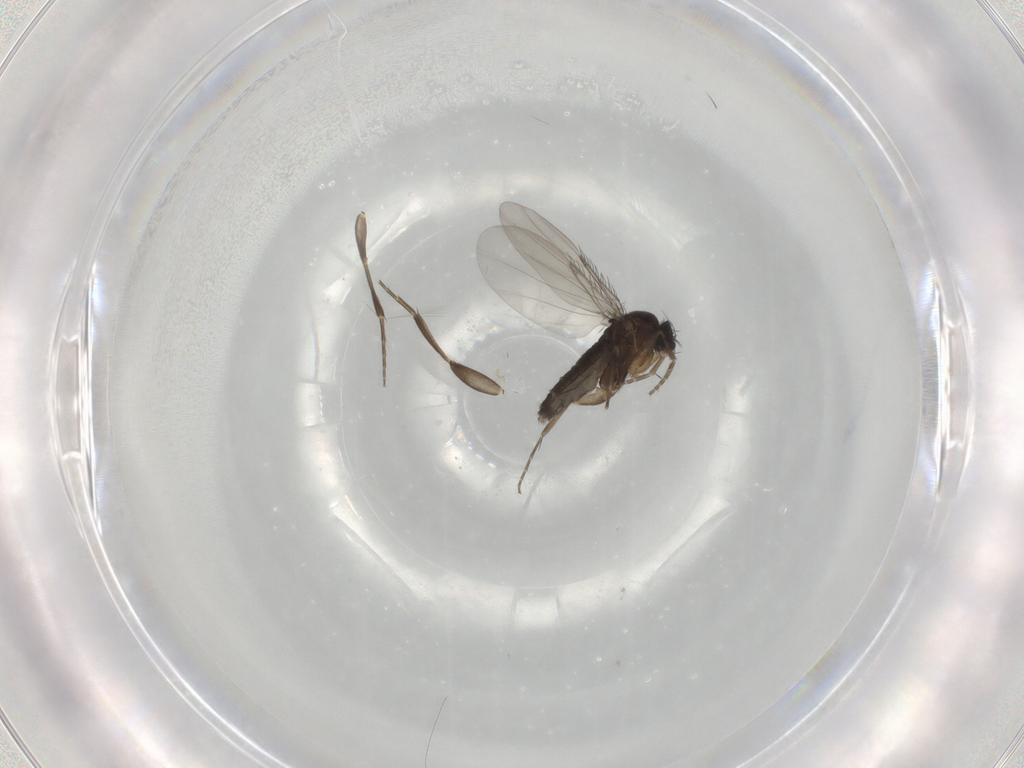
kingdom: Animalia
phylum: Arthropoda
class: Insecta
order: Diptera
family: Phoridae
